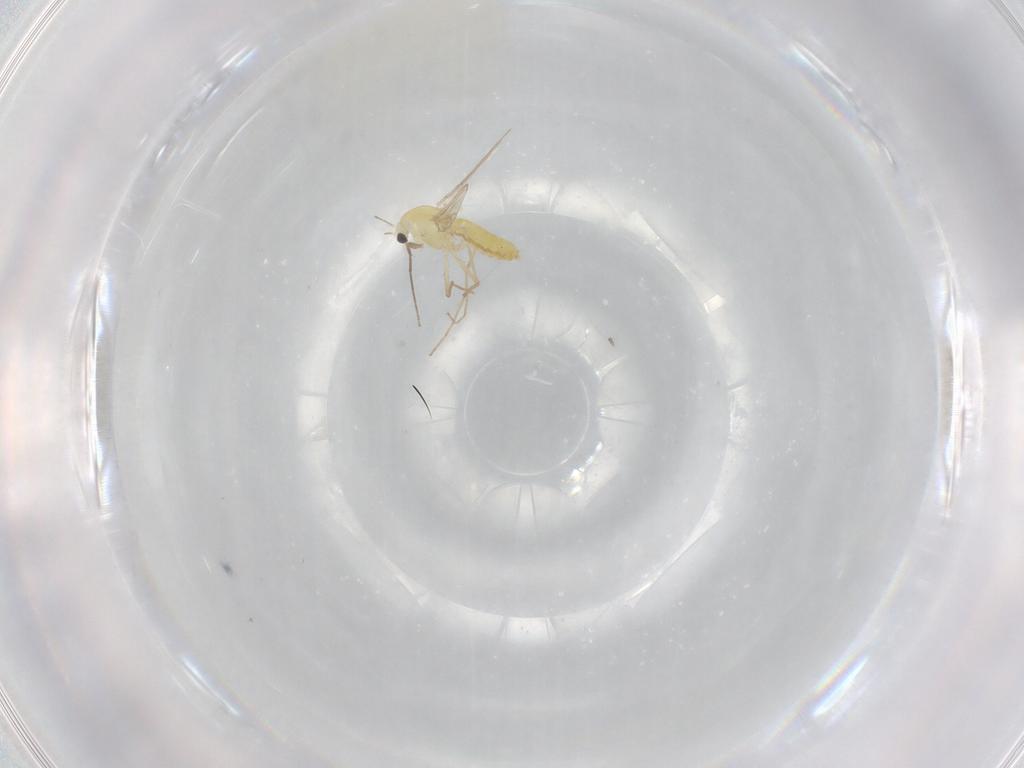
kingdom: Animalia
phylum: Arthropoda
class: Insecta
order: Diptera
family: Chironomidae
